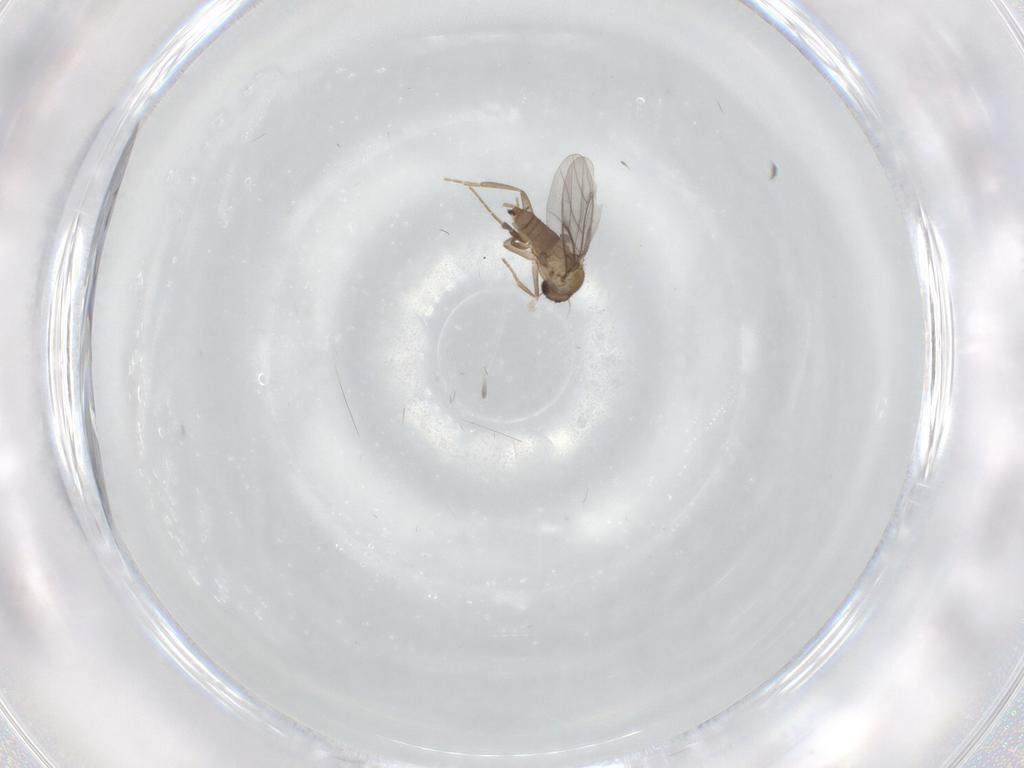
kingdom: Animalia
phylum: Arthropoda
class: Insecta
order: Diptera
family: Cecidomyiidae
